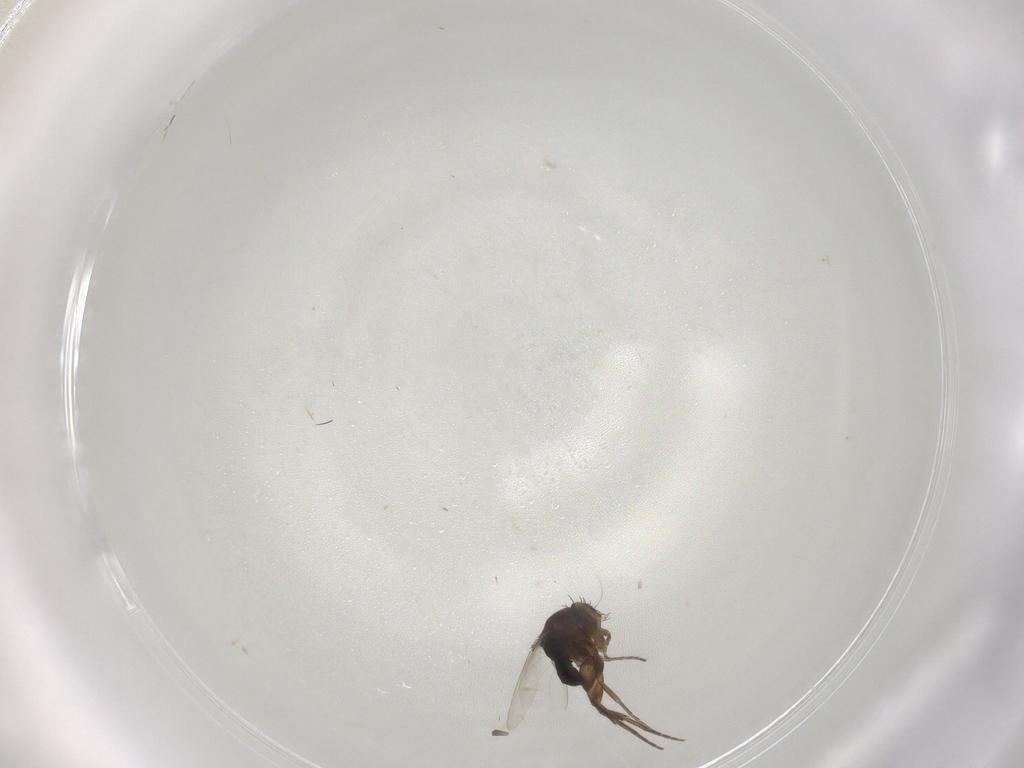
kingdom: Animalia
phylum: Arthropoda
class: Insecta
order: Diptera
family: Phoridae
